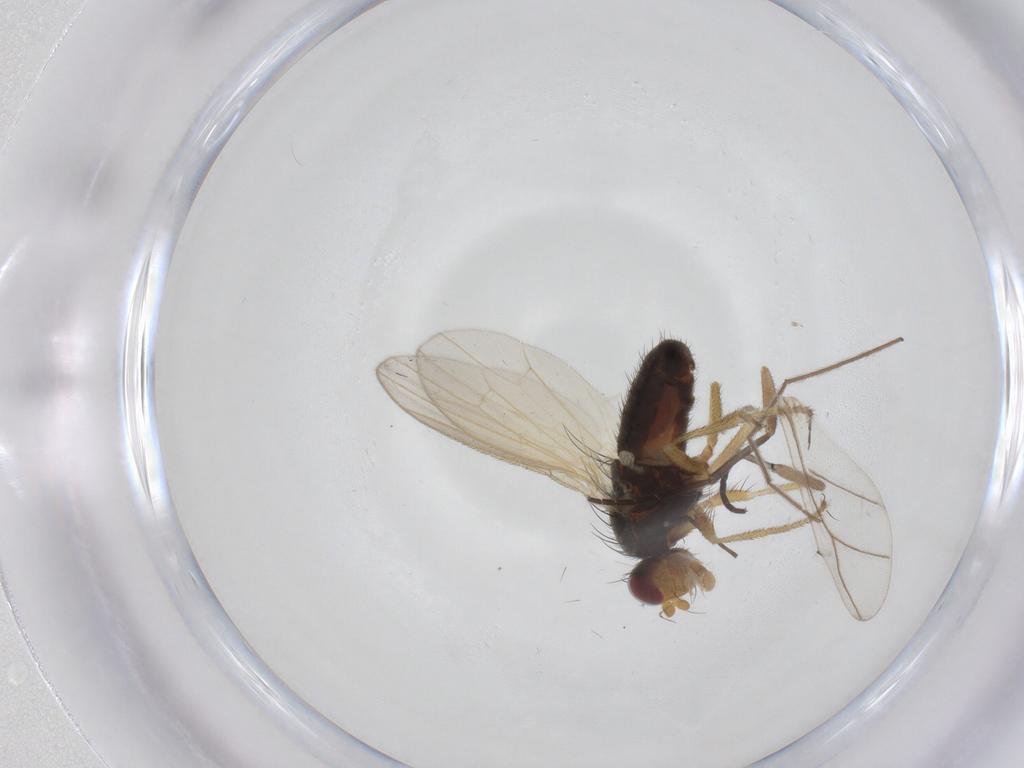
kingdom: Animalia
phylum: Arthropoda
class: Insecta
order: Diptera
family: Heleomyzidae
